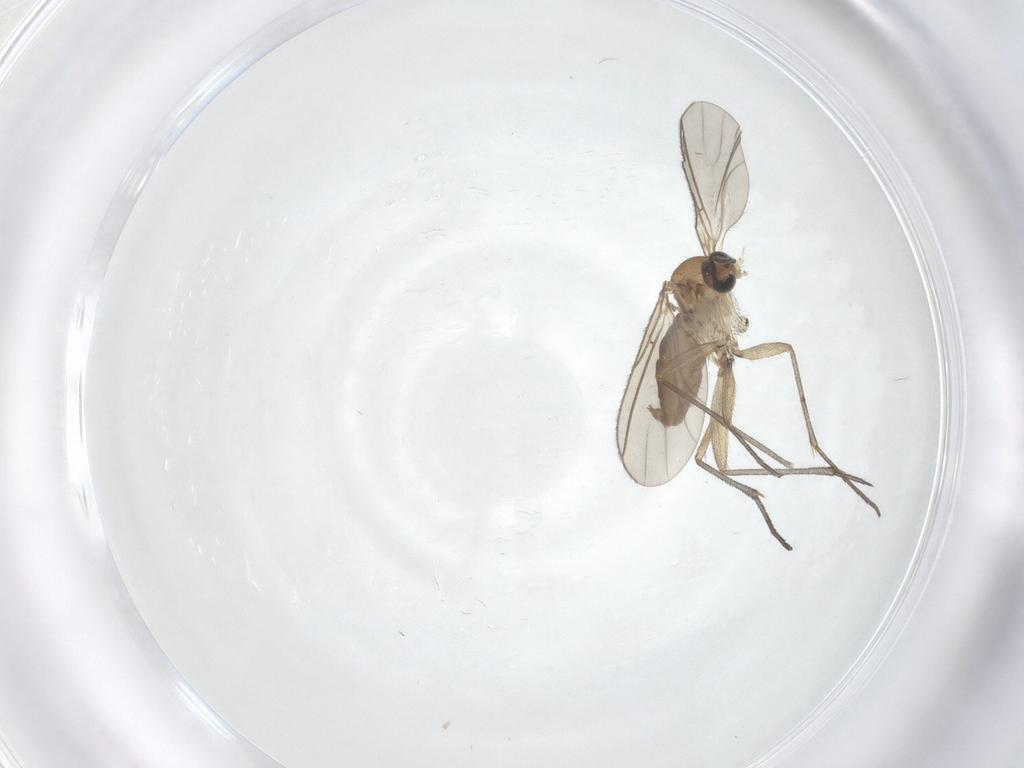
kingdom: Animalia
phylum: Arthropoda
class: Insecta
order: Diptera
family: Sciaridae
